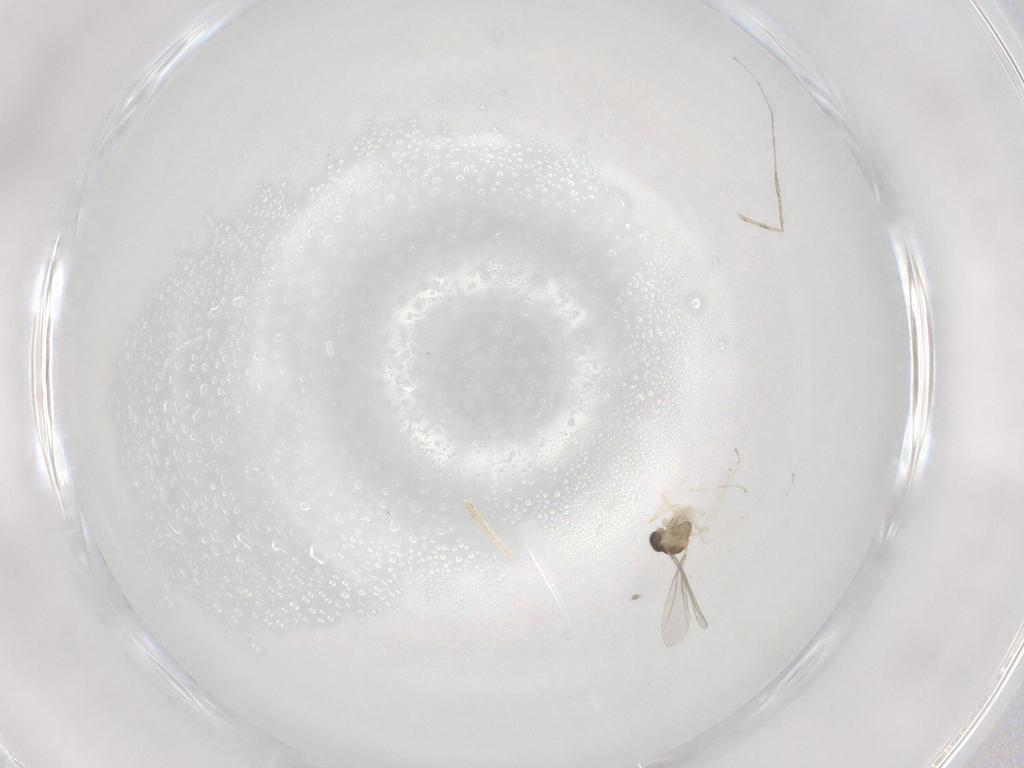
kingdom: Animalia
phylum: Arthropoda
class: Insecta
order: Diptera
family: Cecidomyiidae
